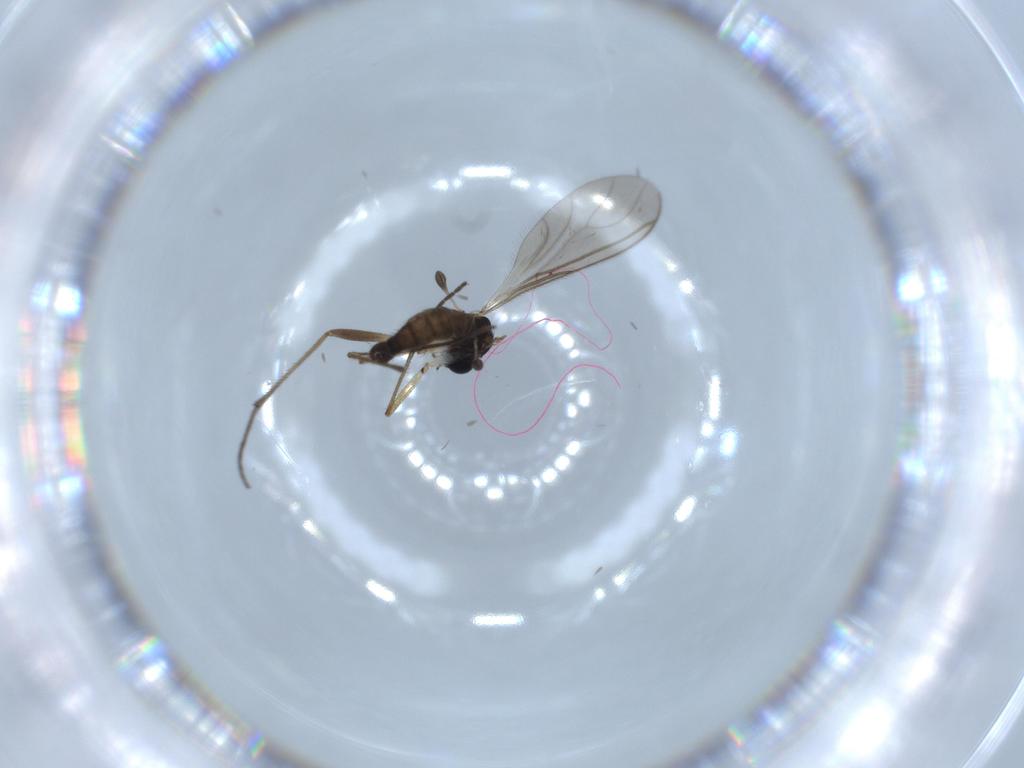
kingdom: Animalia
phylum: Arthropoda
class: Insecta
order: Diptera
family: Sciaridae
